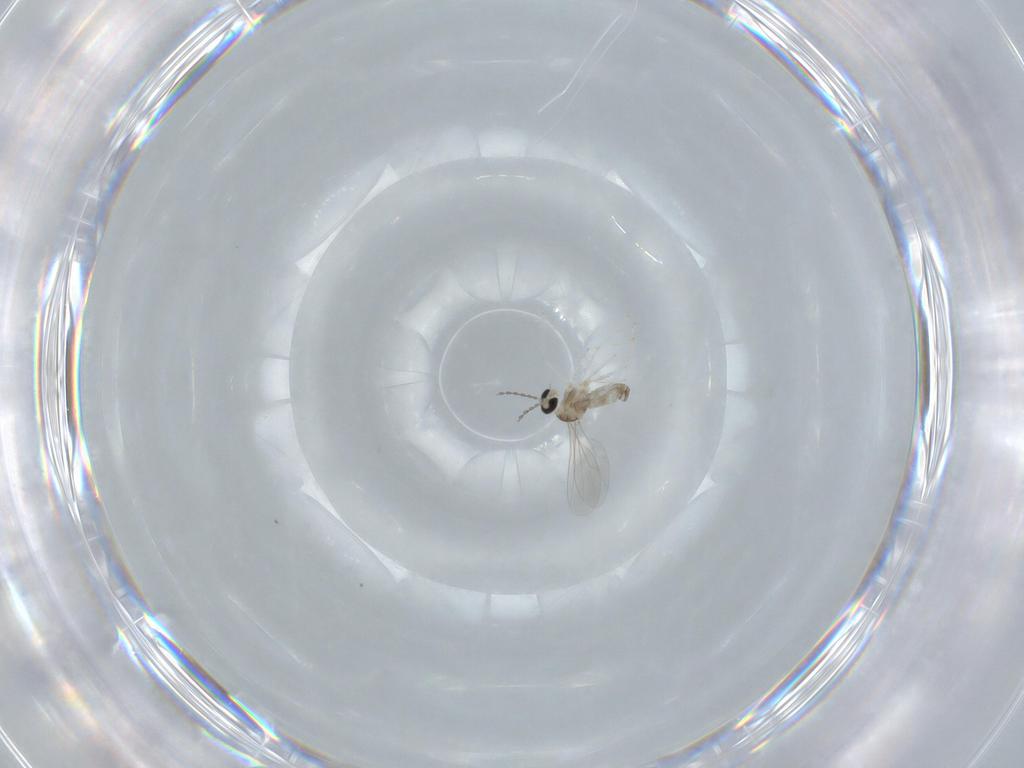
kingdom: Animalia
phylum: Arthropoda
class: Insecta
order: Diptera
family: Cecidomyiidae
